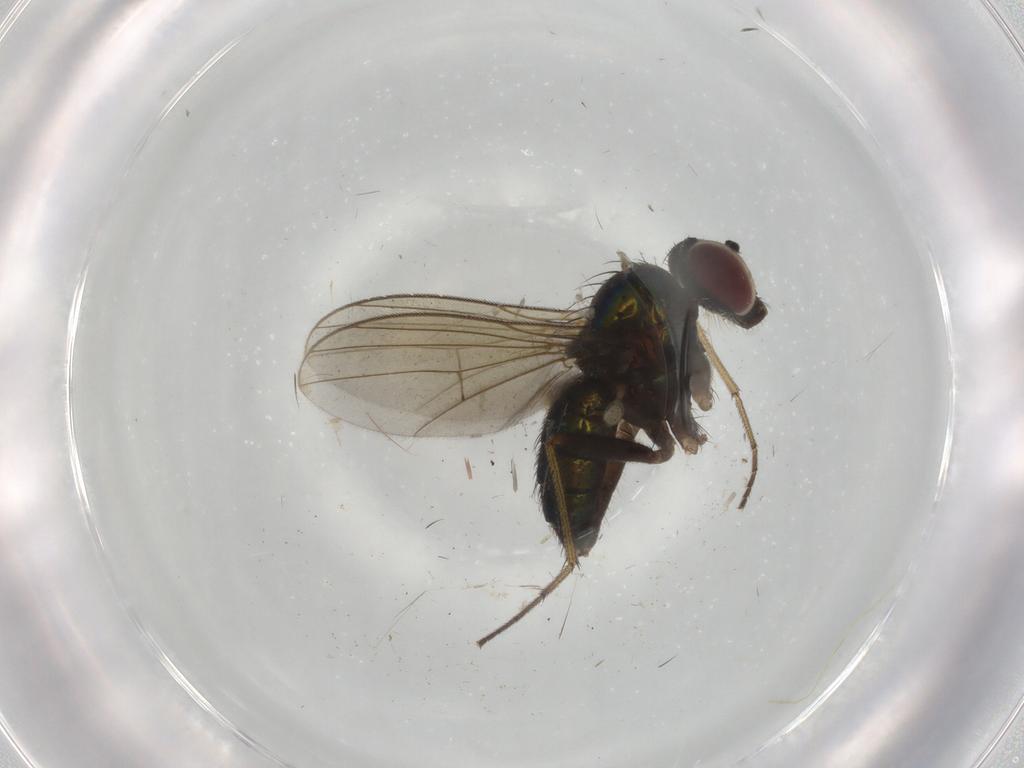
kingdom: Animalia
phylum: Arthropoda
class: Insecta
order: Diptera
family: Dolichopodidae
